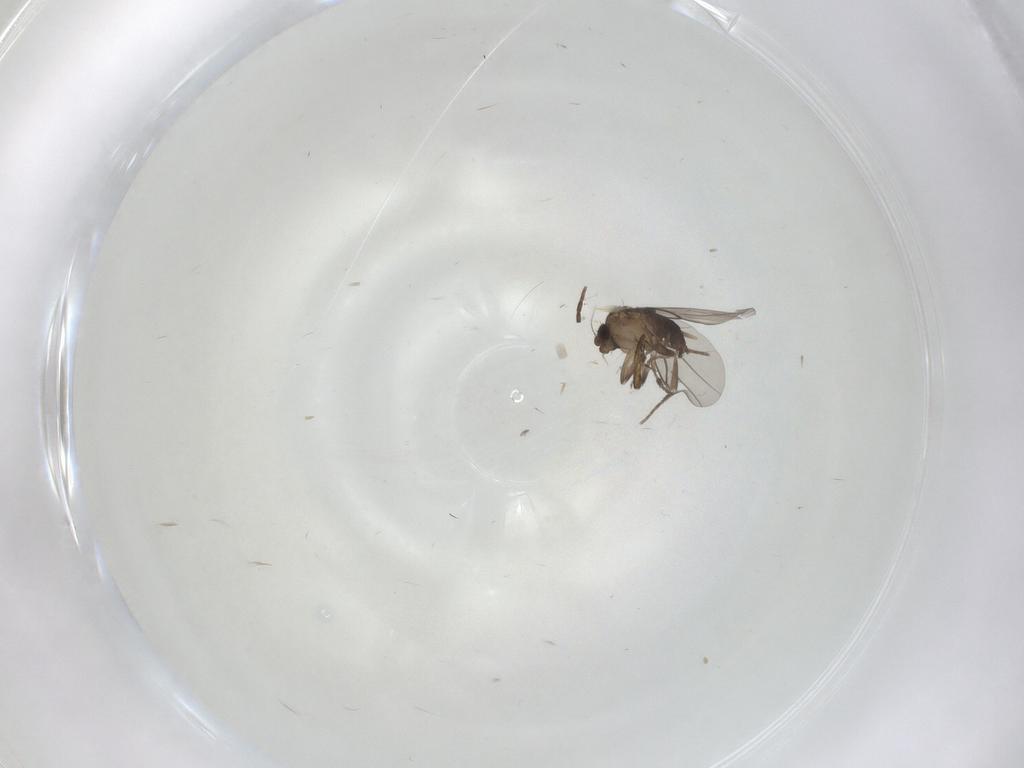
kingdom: Animalia
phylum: Arthropoda
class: Insecta
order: Diptera
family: Phoridae
